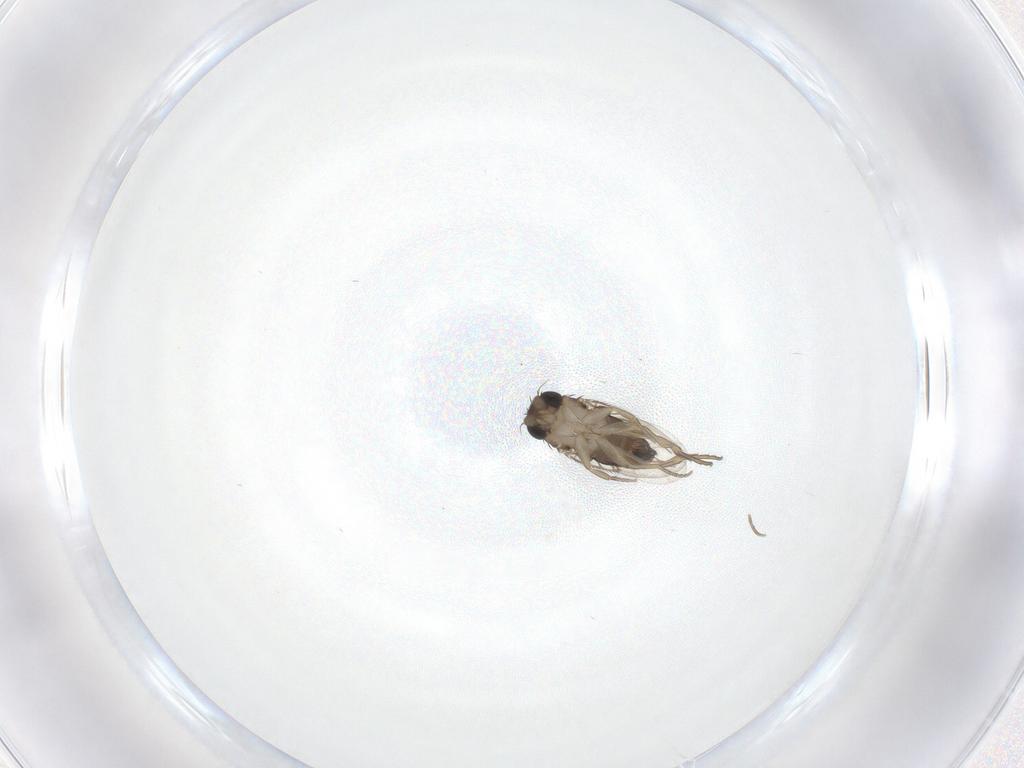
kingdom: Animalia
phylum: Arthropoda
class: Insecta
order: Diptera
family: Phoridae
